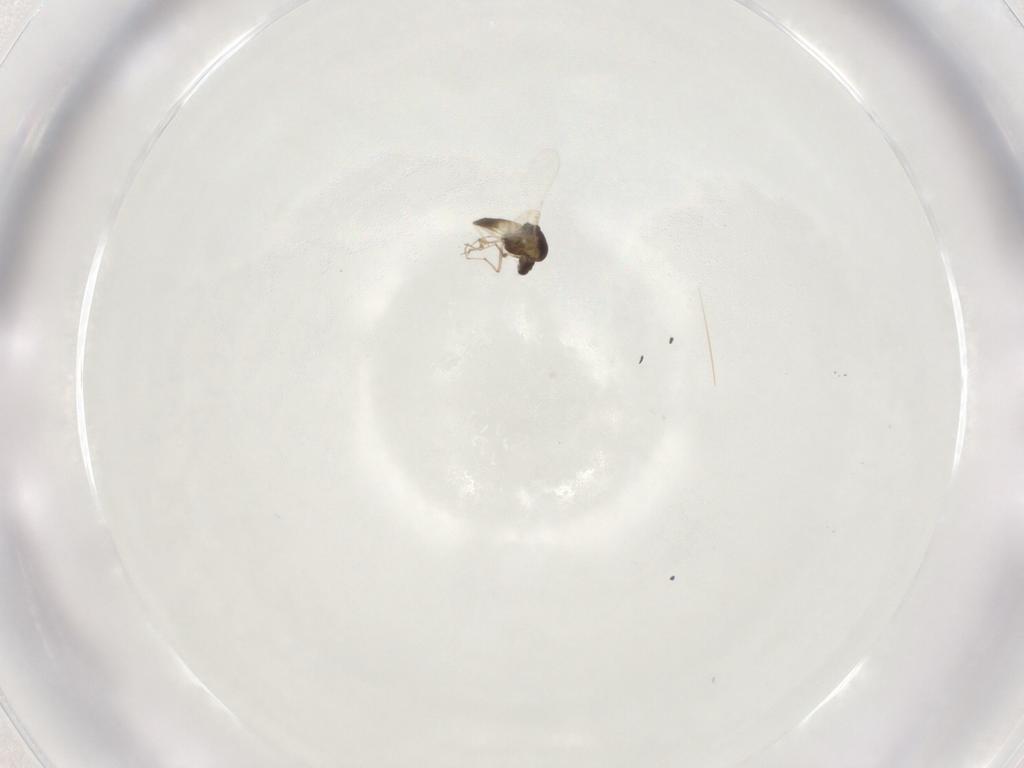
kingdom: Animalia
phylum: Arthropoda
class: Insecta
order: Diptera
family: Chironomidae
